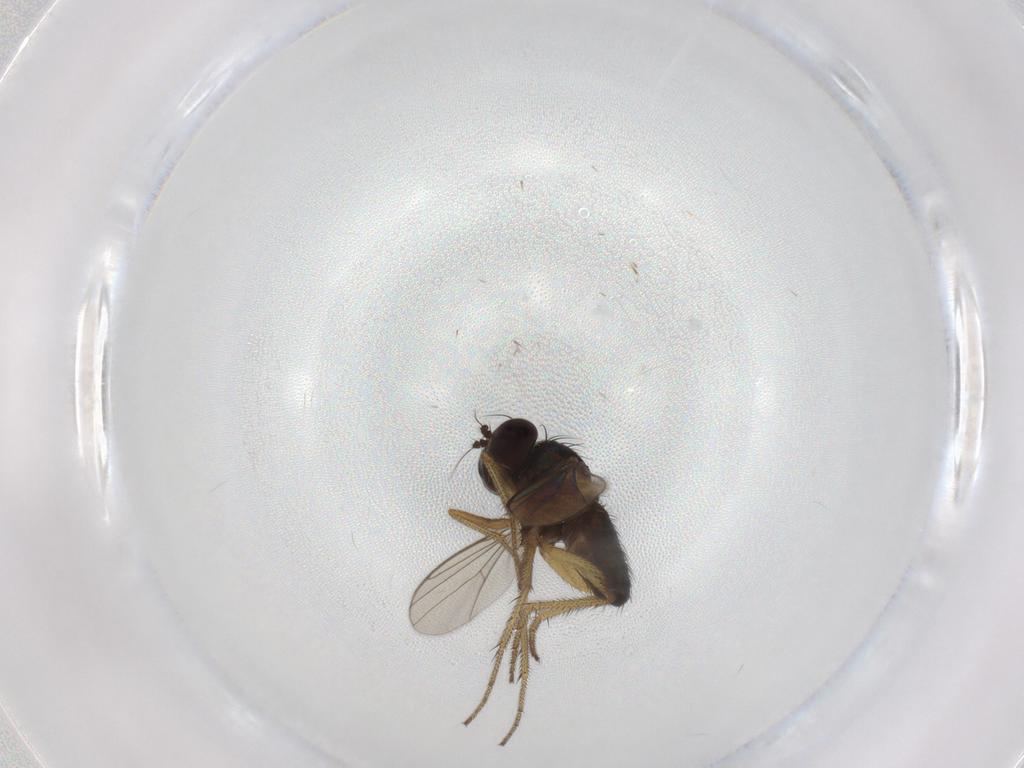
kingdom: Animalia
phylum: Arthropoda
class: Insecta
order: Diptera
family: Dolichopodidae
